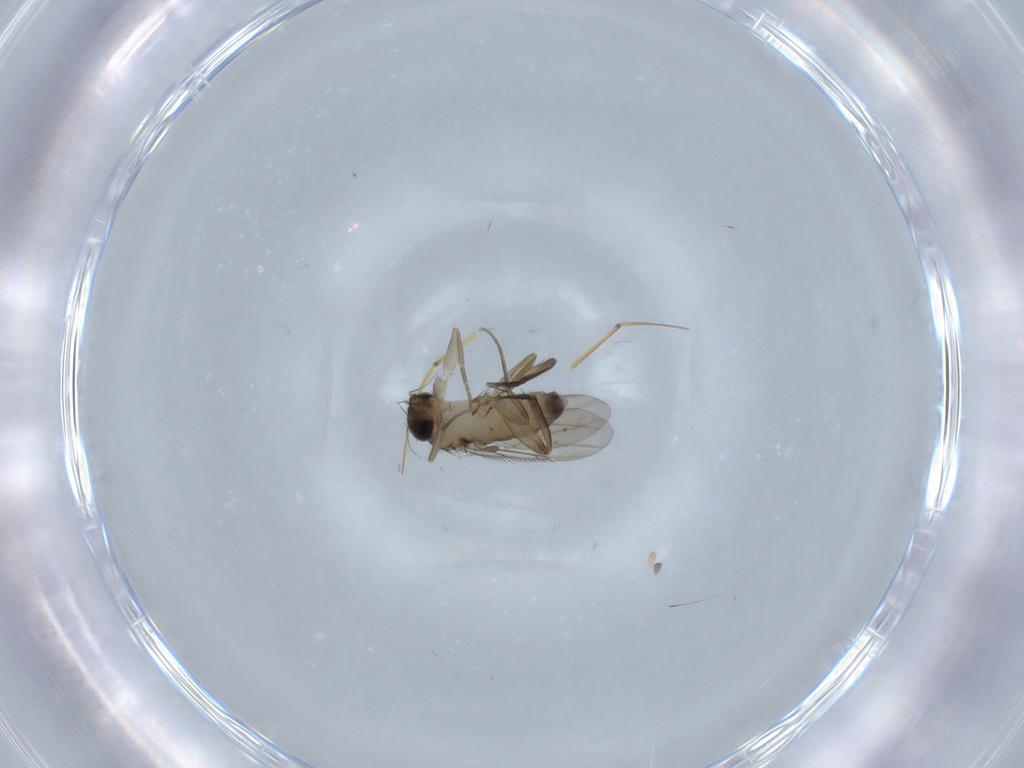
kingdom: Animalia
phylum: Arthropoda
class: Insecta
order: Diptera
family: Phoridae
